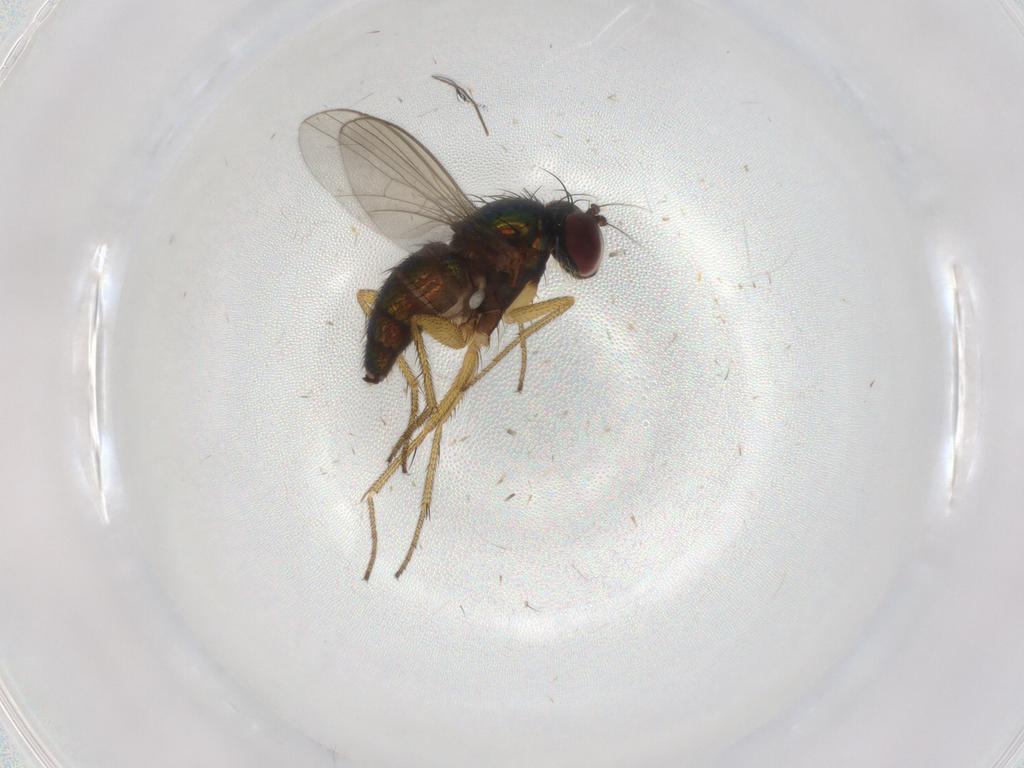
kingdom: Animalia
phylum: Arthropoda
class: Insecta
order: Diptera
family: Dolichopodidae
